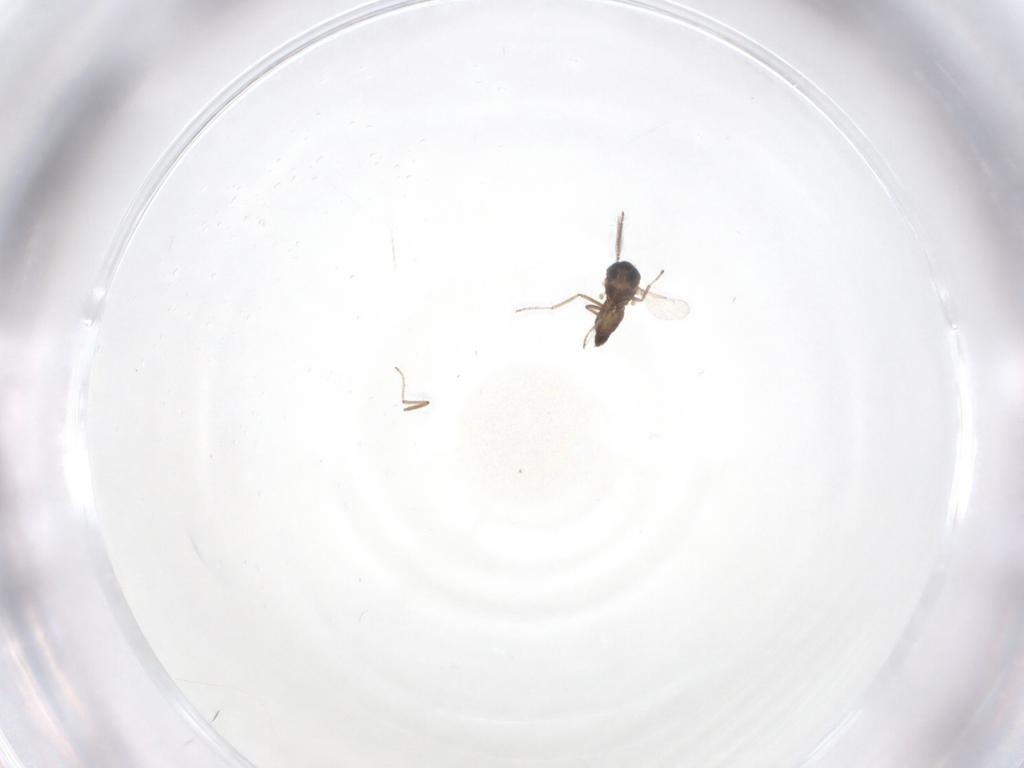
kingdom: Animalia
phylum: Arthropoda
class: Insecta
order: Diptera
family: Ceratopogonidae
